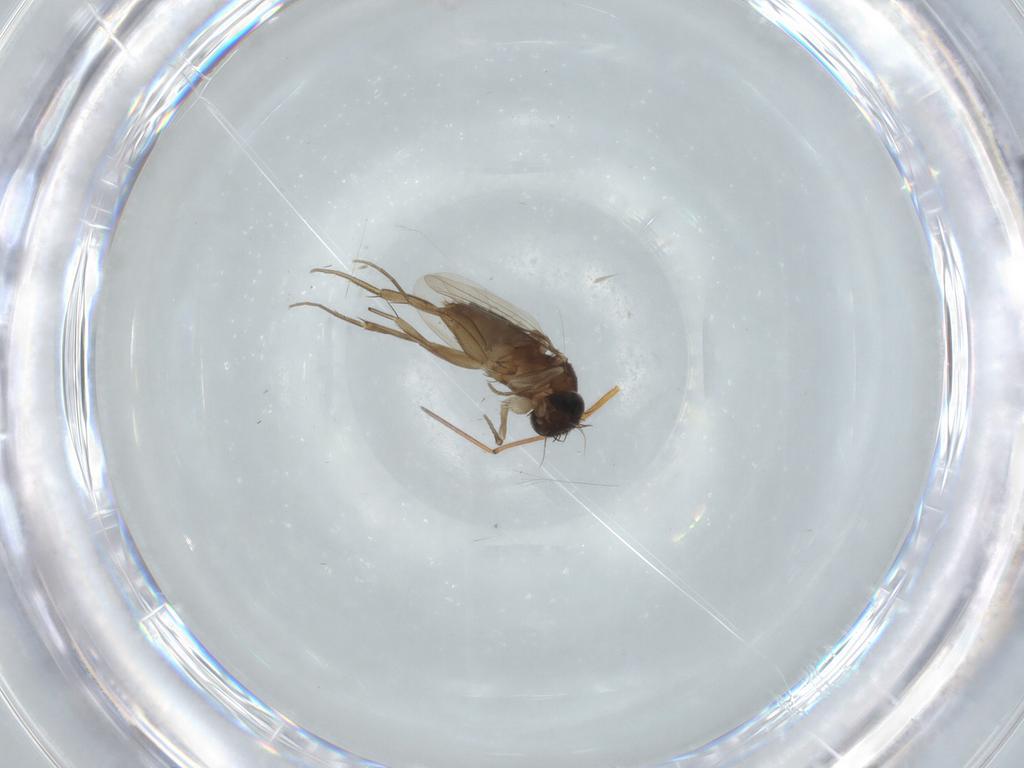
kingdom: Animalia
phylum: Arthropoda
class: Insecta
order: Diptera
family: Dolichopodidae
